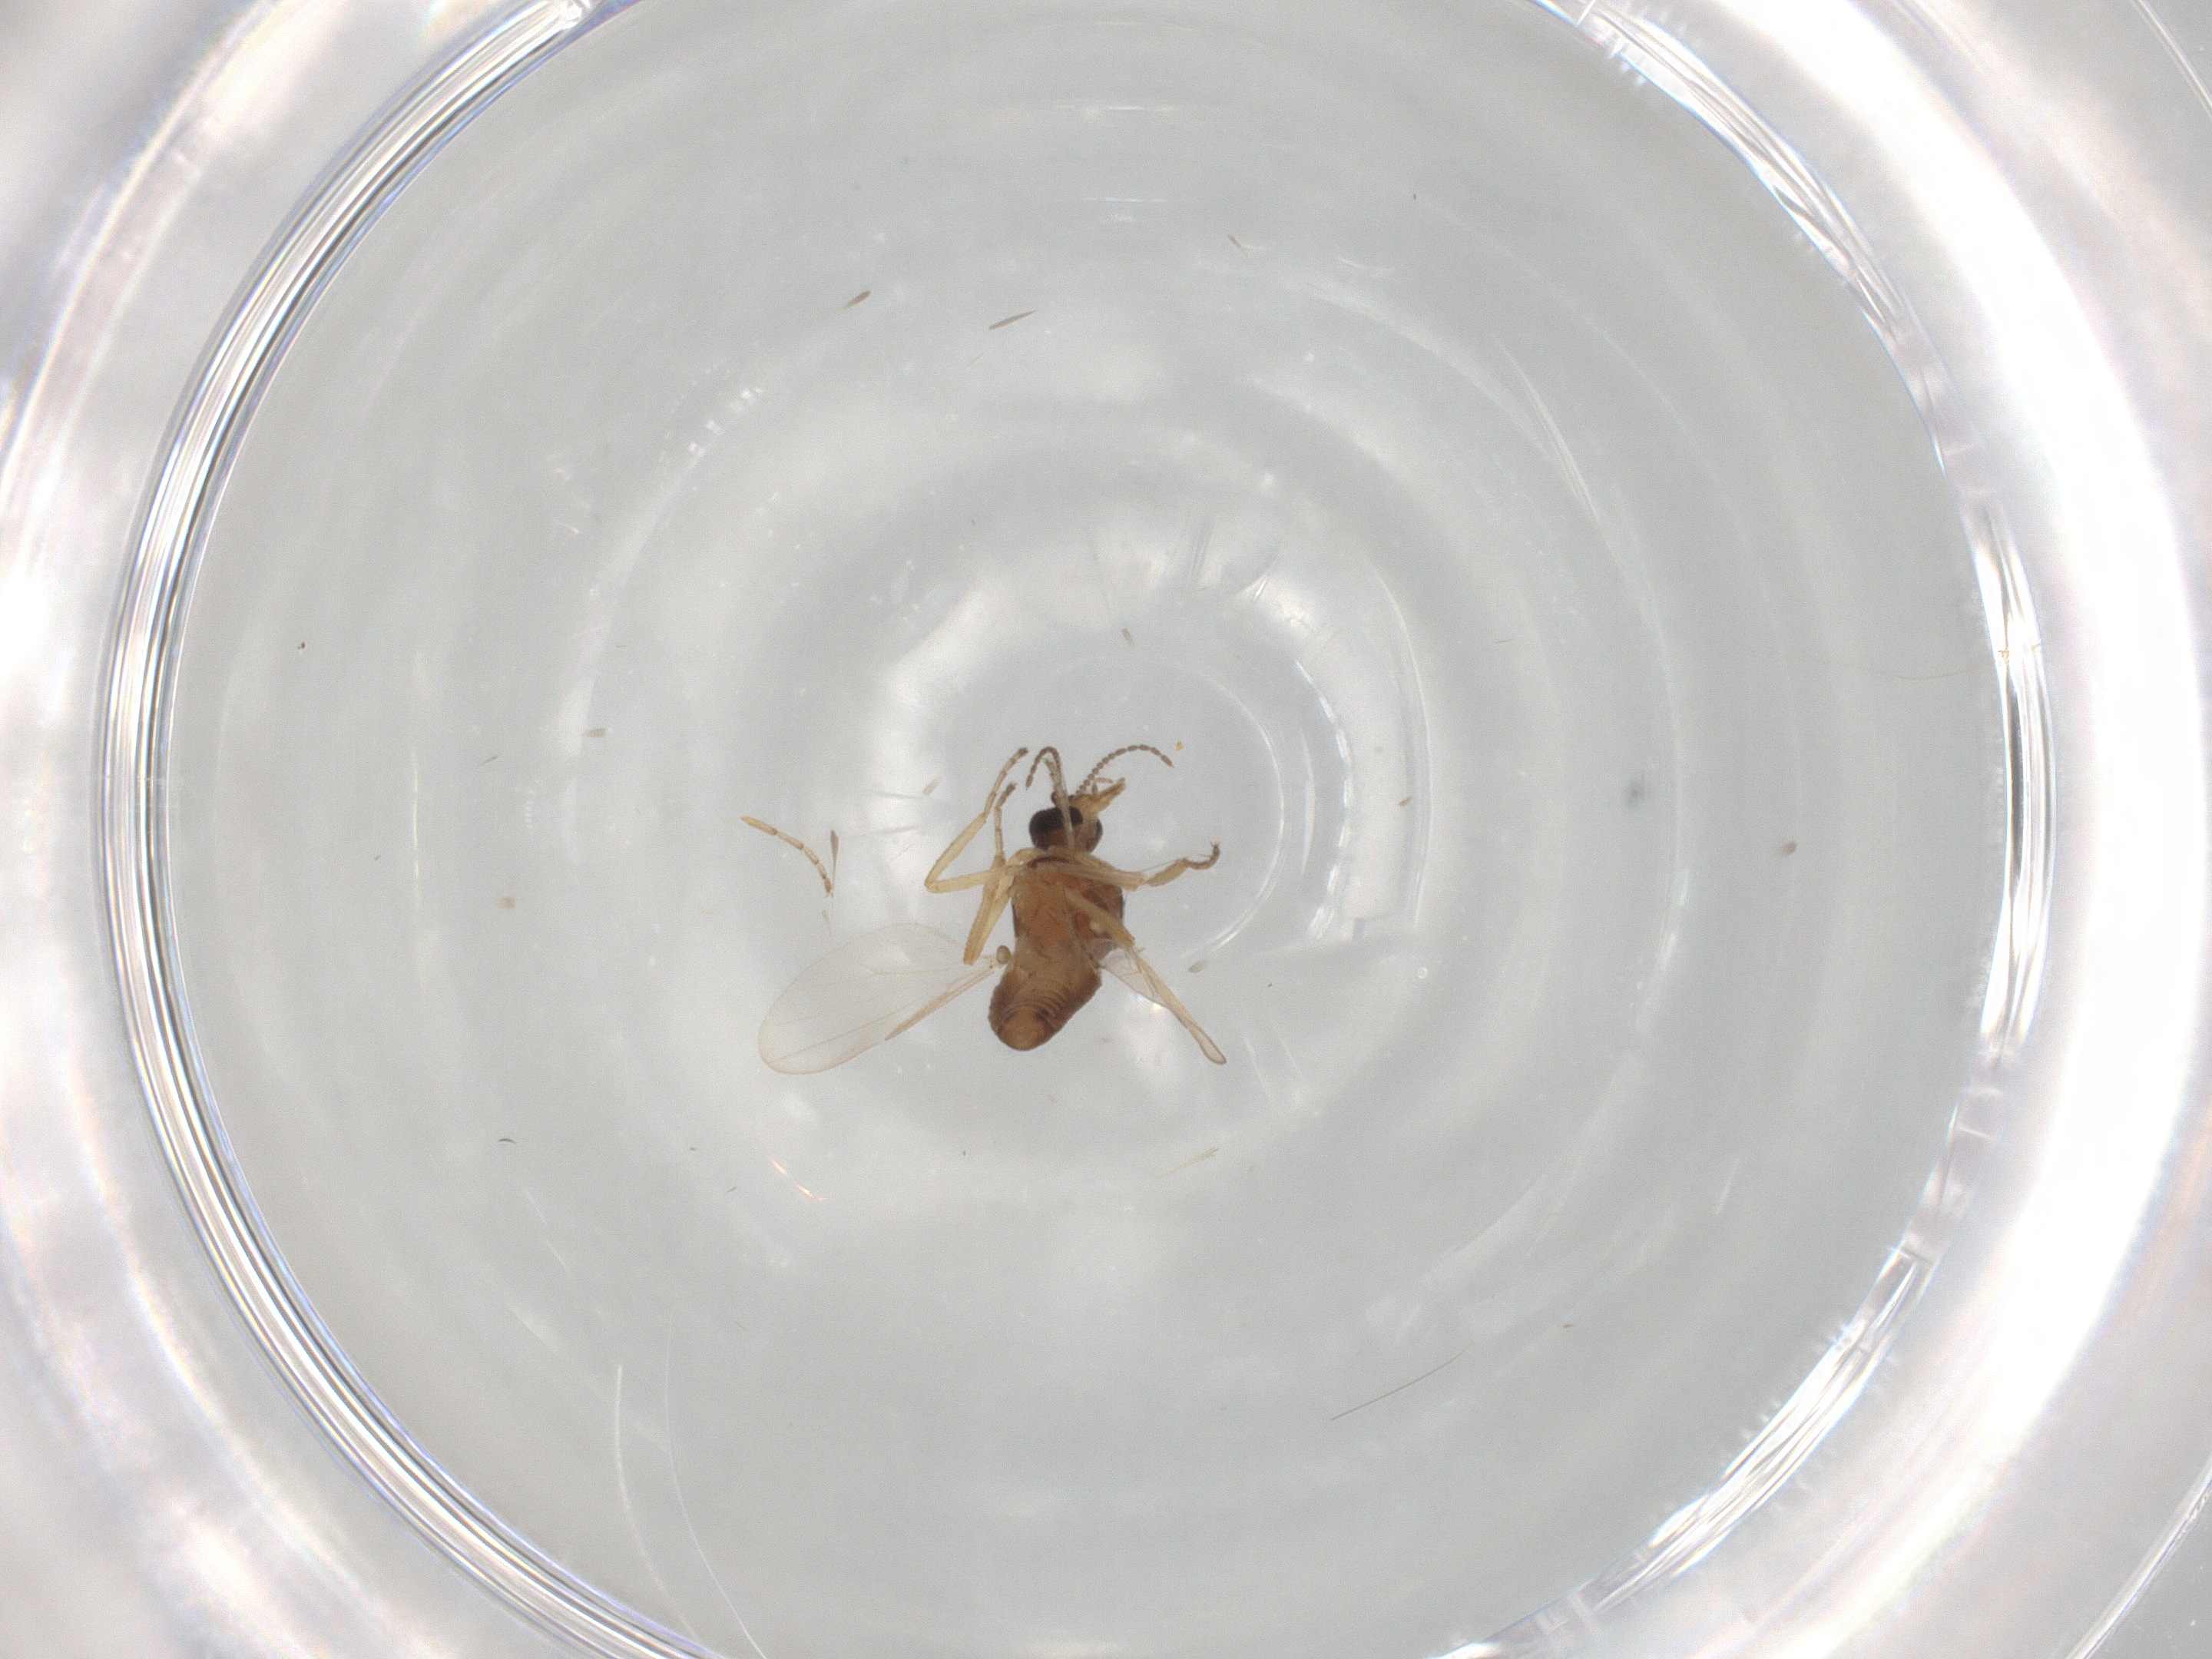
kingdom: Animalia
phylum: Arthropoda
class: Insecta
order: Diptera
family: Ceratopogonidae
